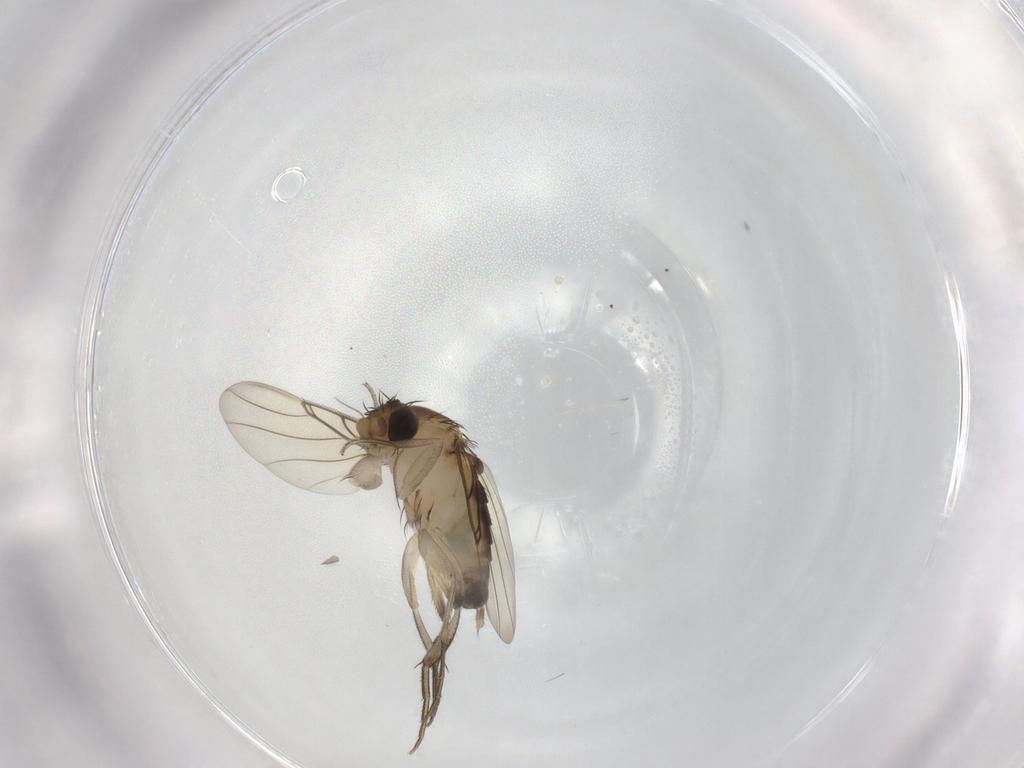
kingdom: Animalia
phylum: Arthropoda
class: Insecta
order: Diptera
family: Phoridae
